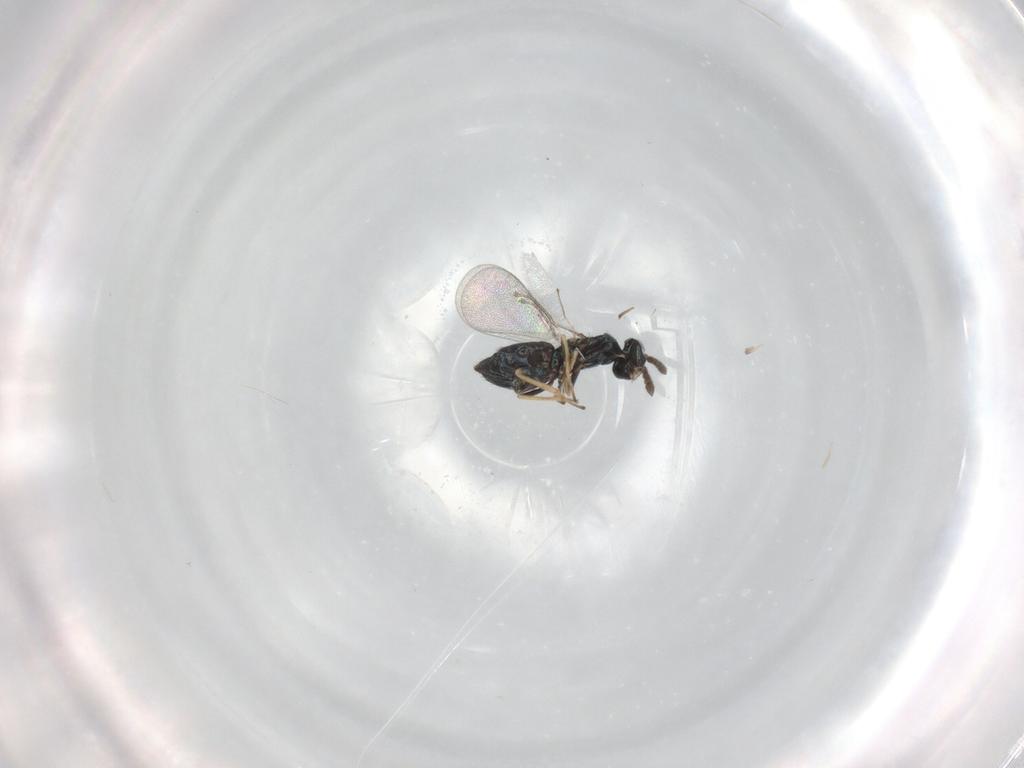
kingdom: Animalia
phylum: Arthropoda
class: Insecta
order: Hymenoptera
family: Eulophidae
